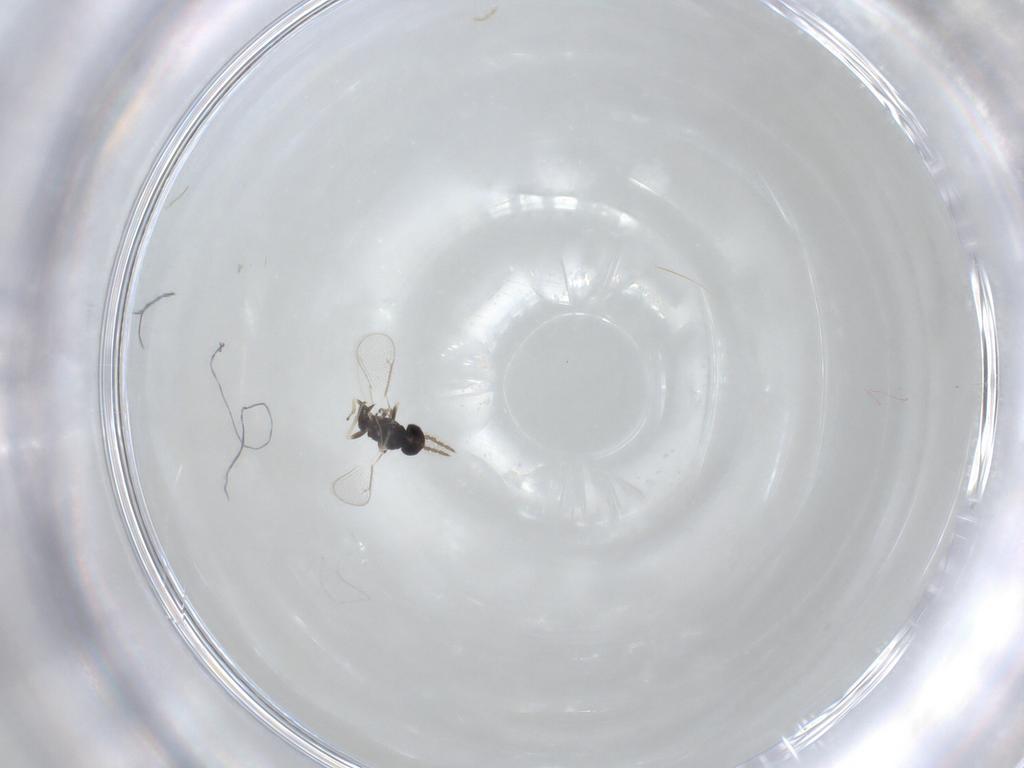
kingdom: Animalia
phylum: Arthropoda
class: Insecta
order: Hymenoptera
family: Eulophidae
